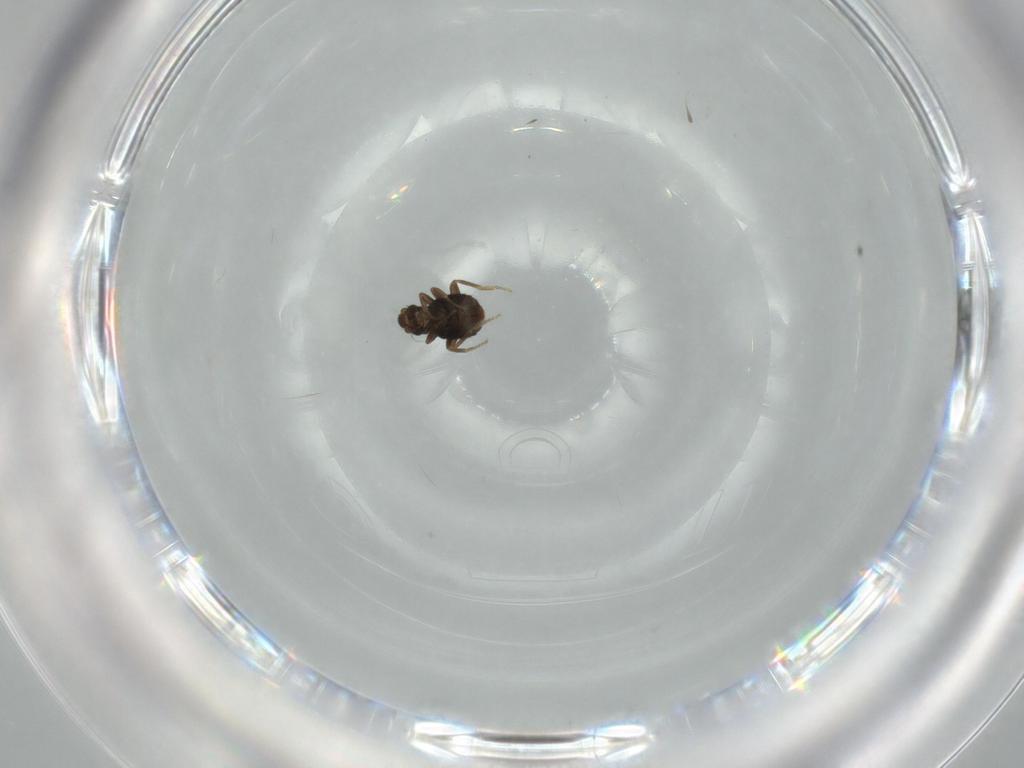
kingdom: Animalia
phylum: Arthropoda
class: Insecta
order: Diptera
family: Phoridae
